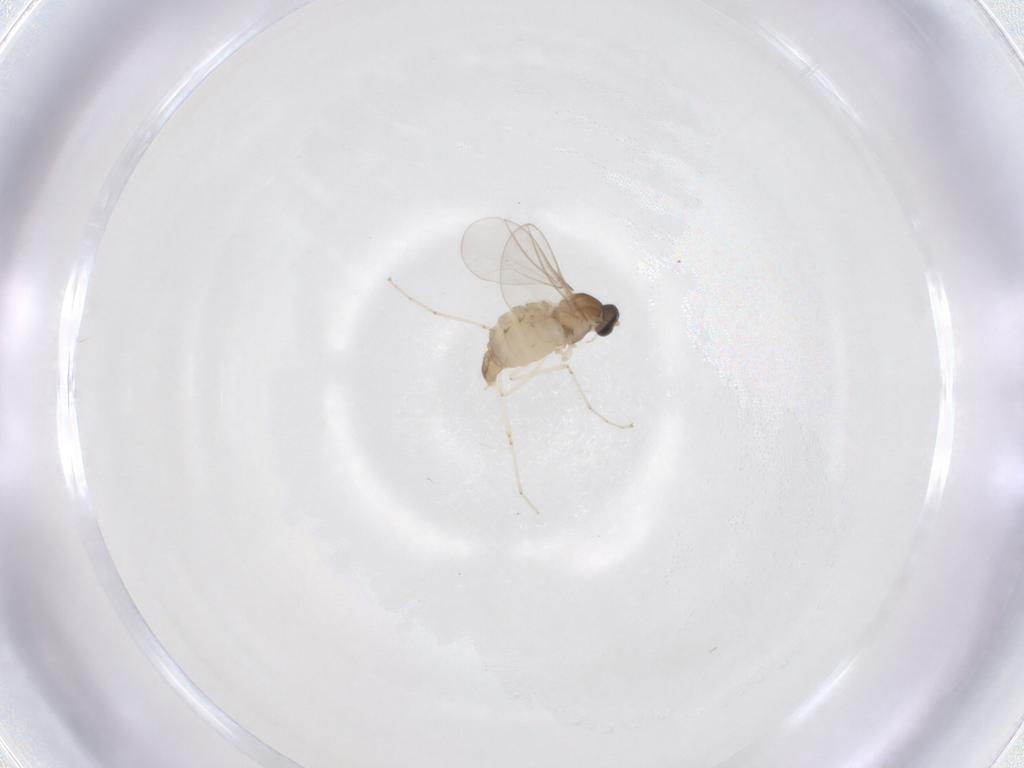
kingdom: Animalia
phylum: Arthropoda
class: Insecta
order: Diptera
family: Cecidomyiidae
